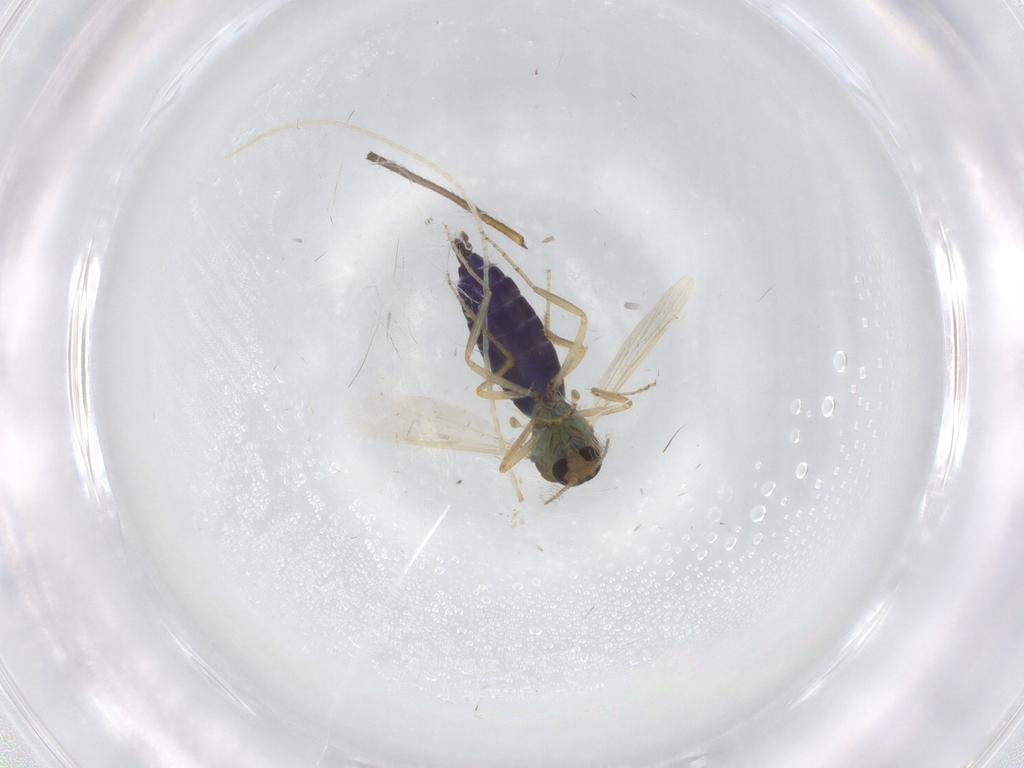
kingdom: Animalia
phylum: Arthropoda
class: Insecta
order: Diptera
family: Ceratopogonidae
